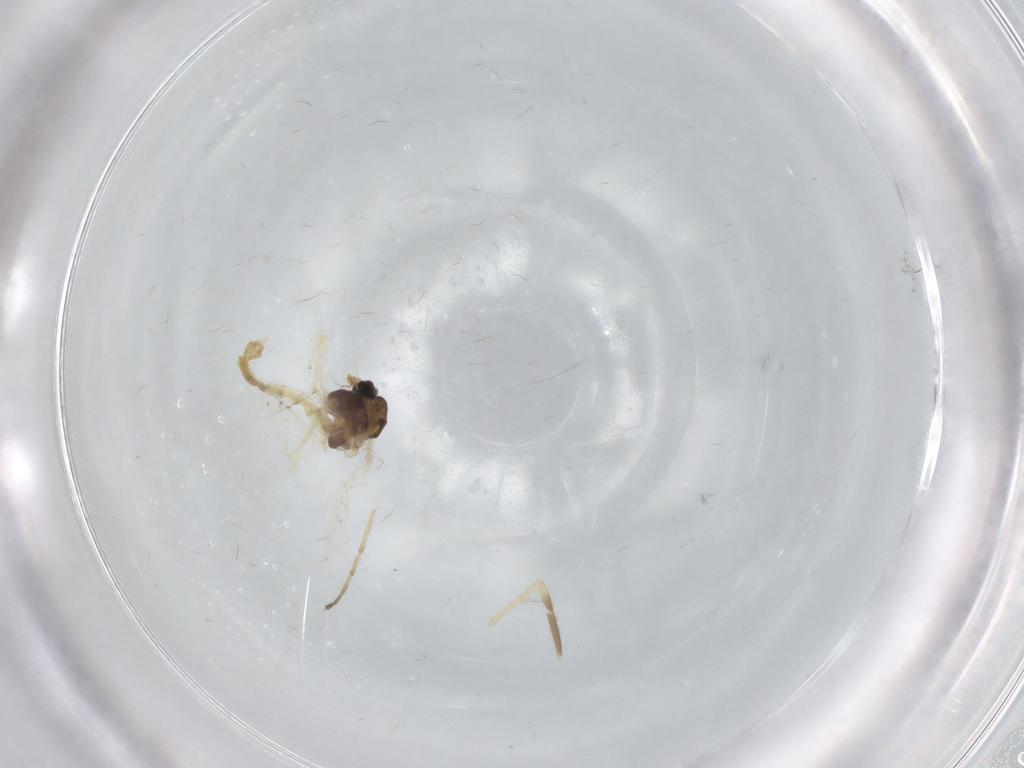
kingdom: Animalia
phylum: Arthropoda
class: Insecta
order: Diptera
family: Chironomidae
